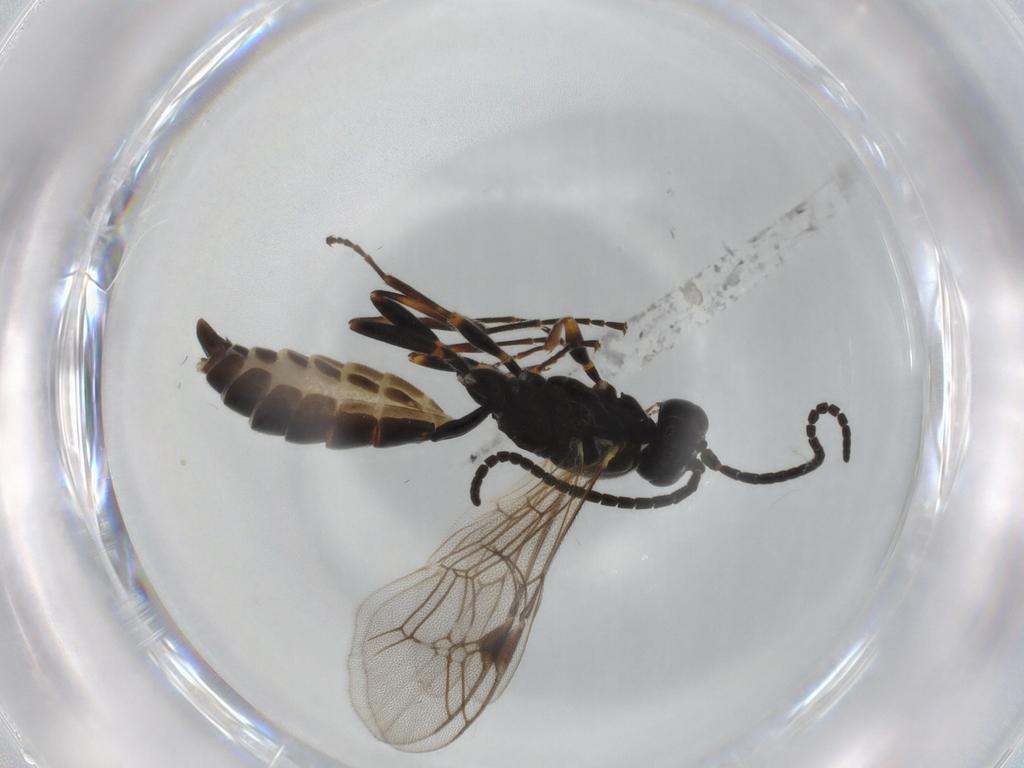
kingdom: Animalia
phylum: Arthropoda
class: Insecta
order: Hymenoptera
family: Ichneumonidae
